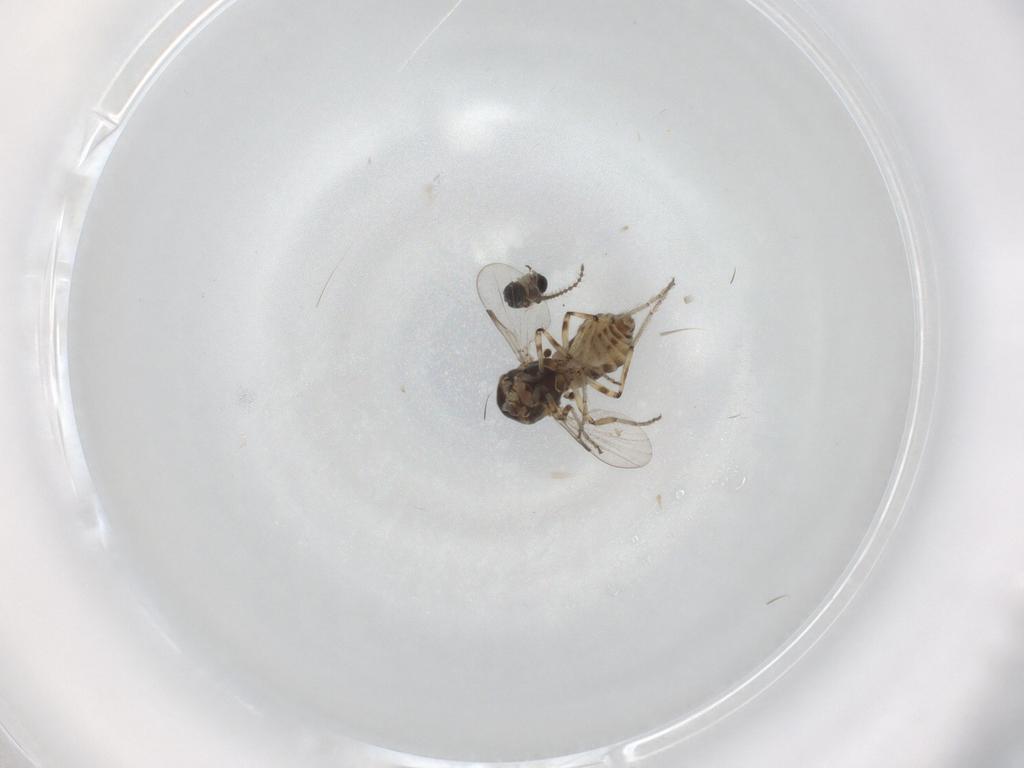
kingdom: Animalia
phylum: Arthropoda
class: Insecta
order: Diptera
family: Ceratopogonidae
